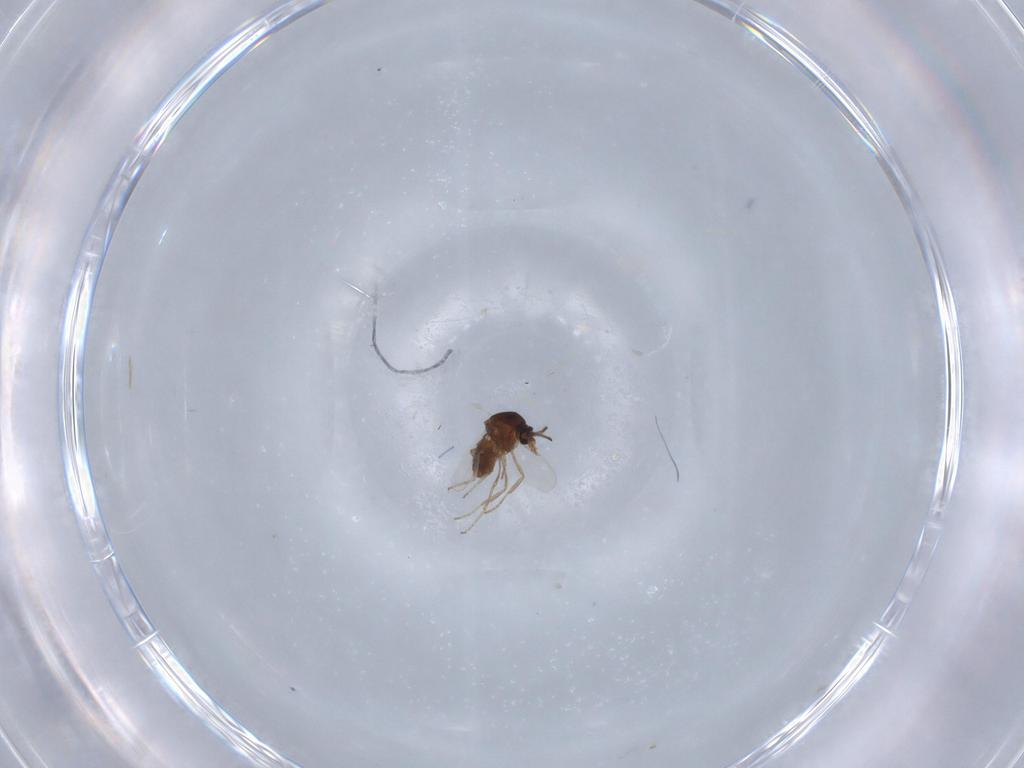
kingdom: Animalia
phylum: Arthropoda
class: Insecta
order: Diptera
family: Ceratopogonidae
